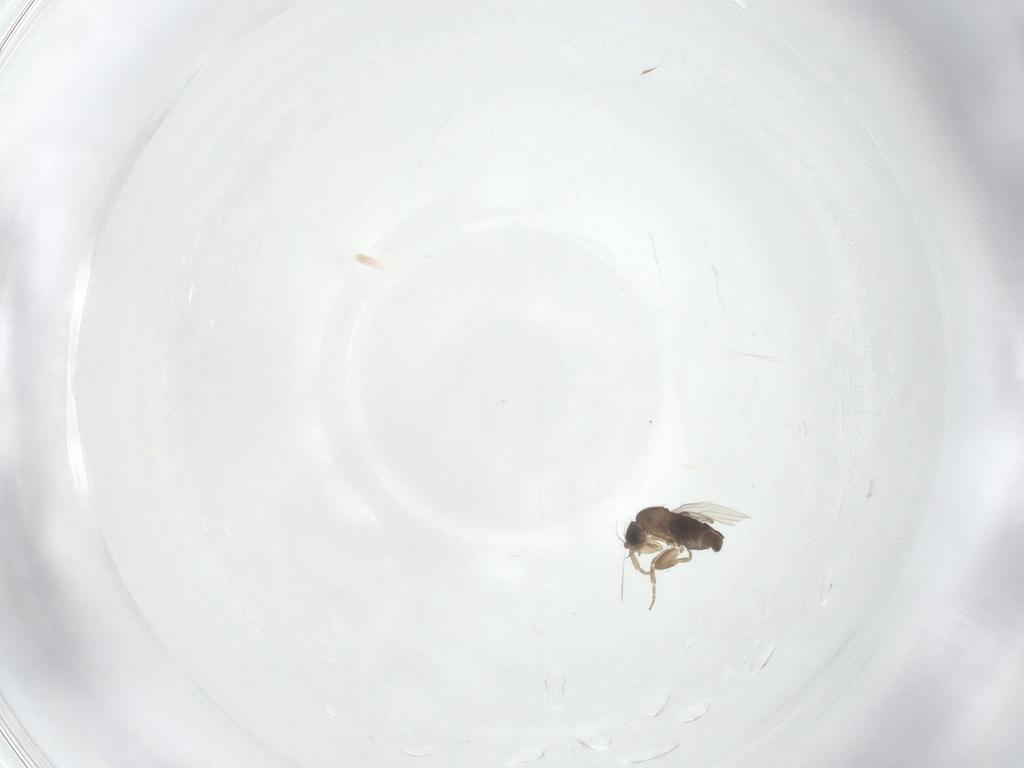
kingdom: Animalia
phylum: Arthropoda
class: Insecta
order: Diptera
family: Phoridae
